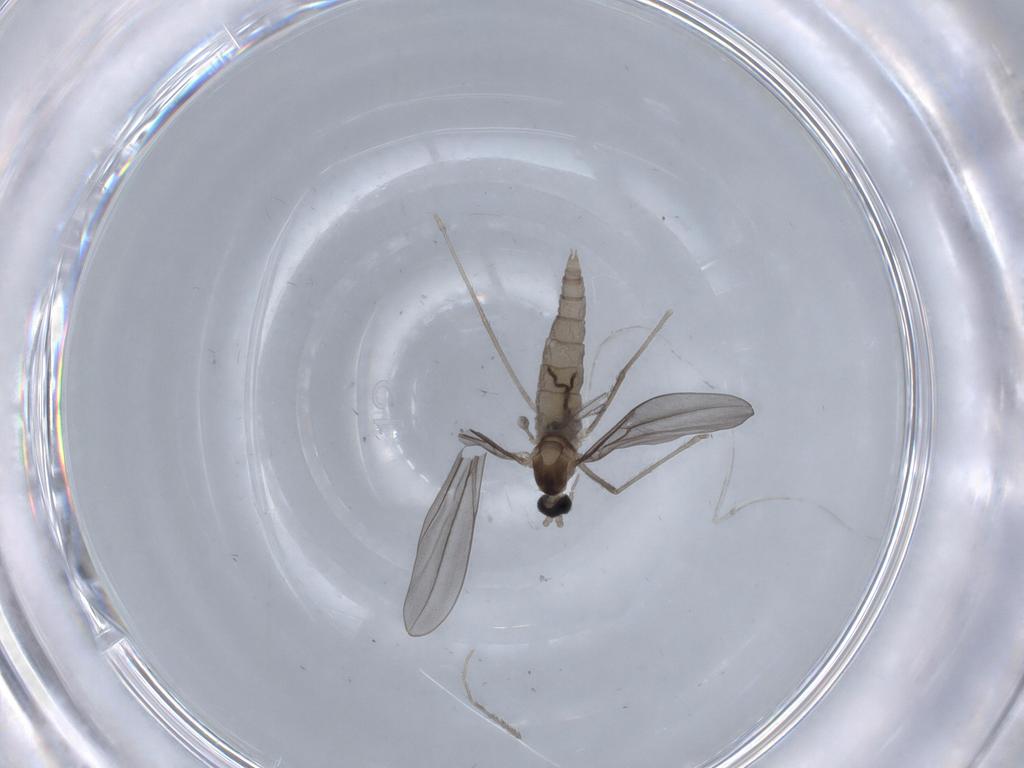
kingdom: Animalia
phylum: Arthropoda
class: Insecta
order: Diptera
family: Cecidomyiidae
